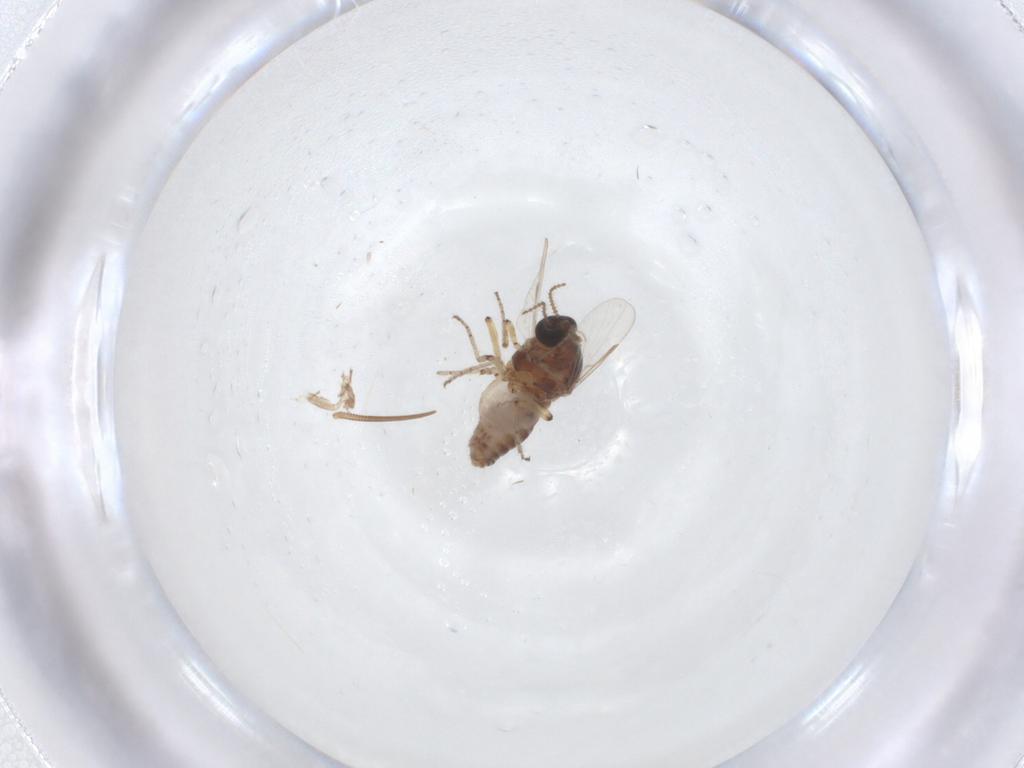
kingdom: Animalia
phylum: Arthropoda
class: Insecta
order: Diptera
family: Ceratopogonidae
